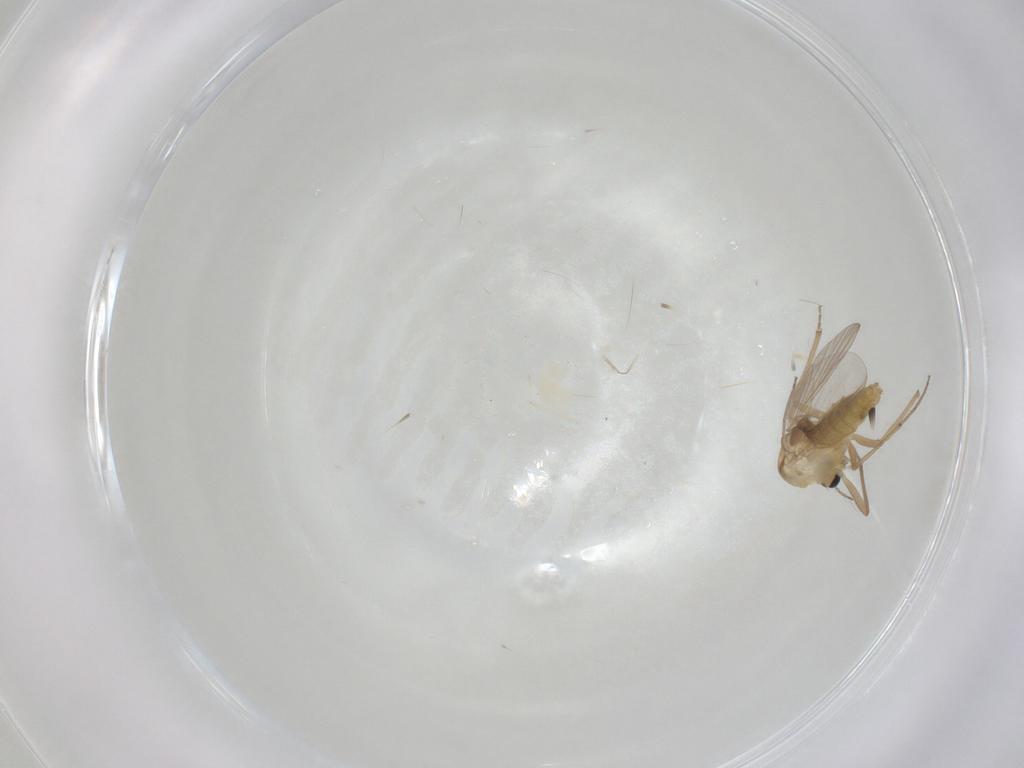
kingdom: Animalia
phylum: Arthropoda
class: Insecta
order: Diptera
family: Chironomidae
